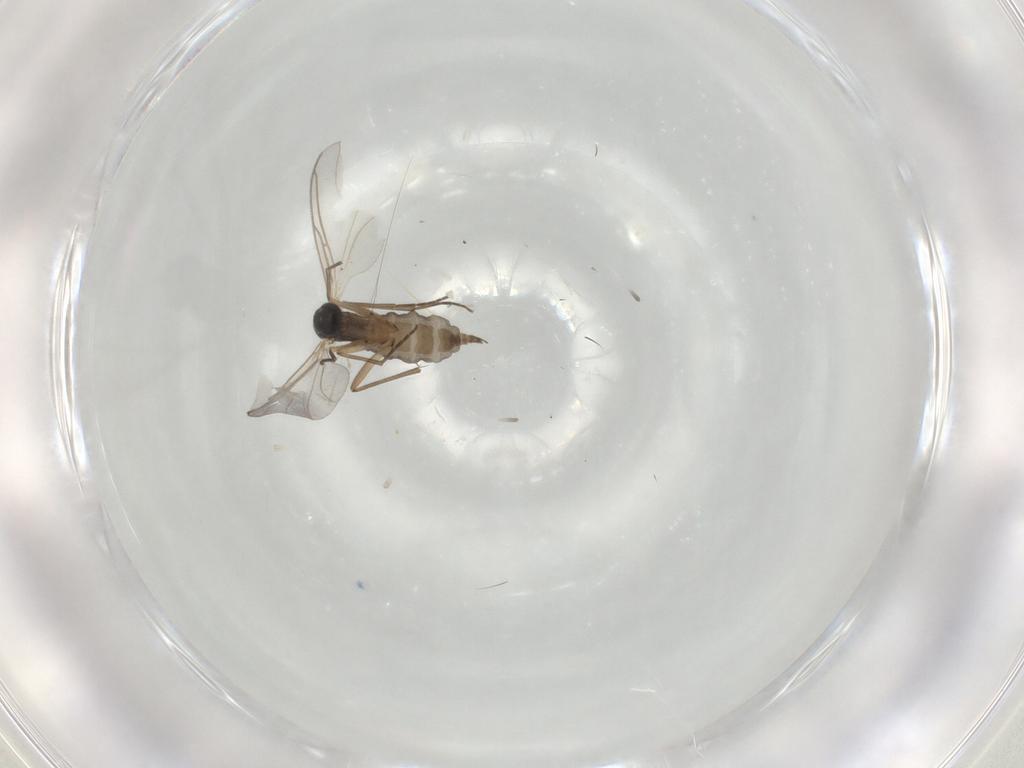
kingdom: Animalia
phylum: Arthropoda
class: Insecta
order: Diptera
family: Sciaridae
